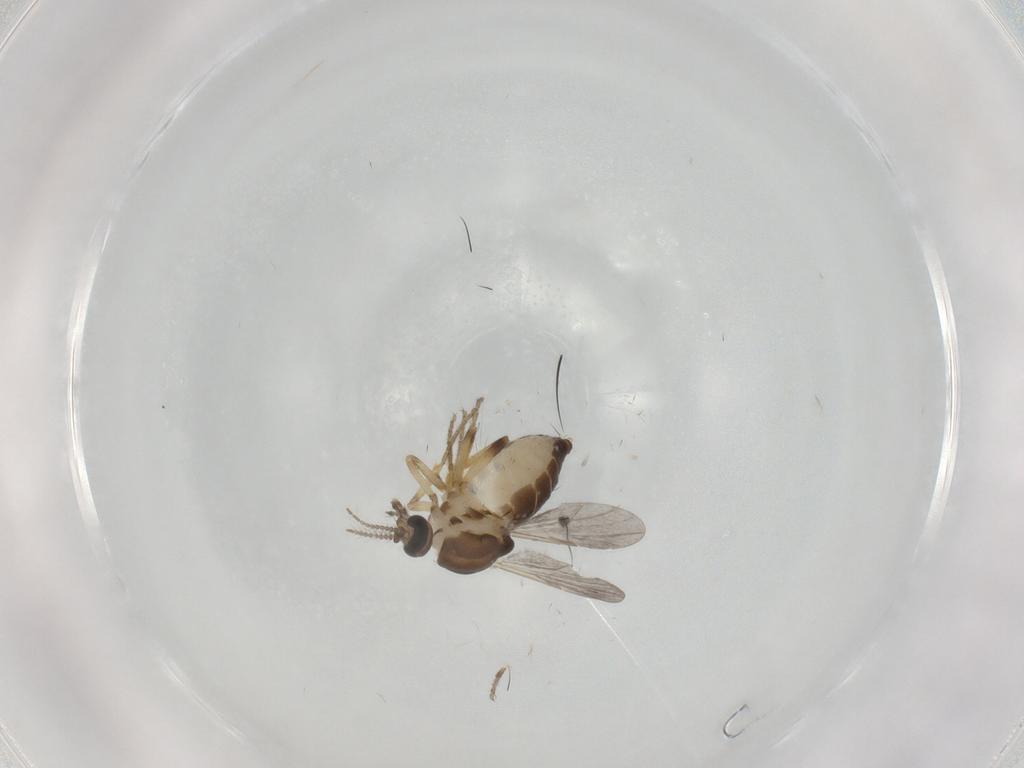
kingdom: Animalia
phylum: Arthropoda
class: Insecta
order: Diptera
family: Ceratopogonidae
